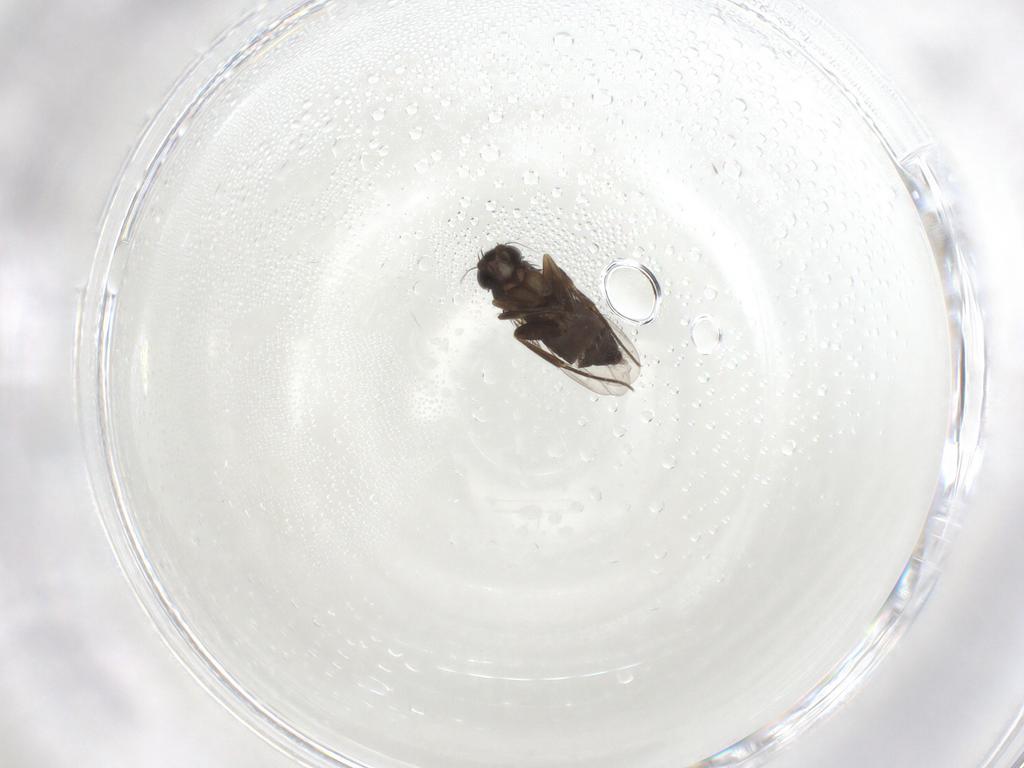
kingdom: Animalia
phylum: Arthropoda
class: Insecta
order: Diptera
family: Phoridae
